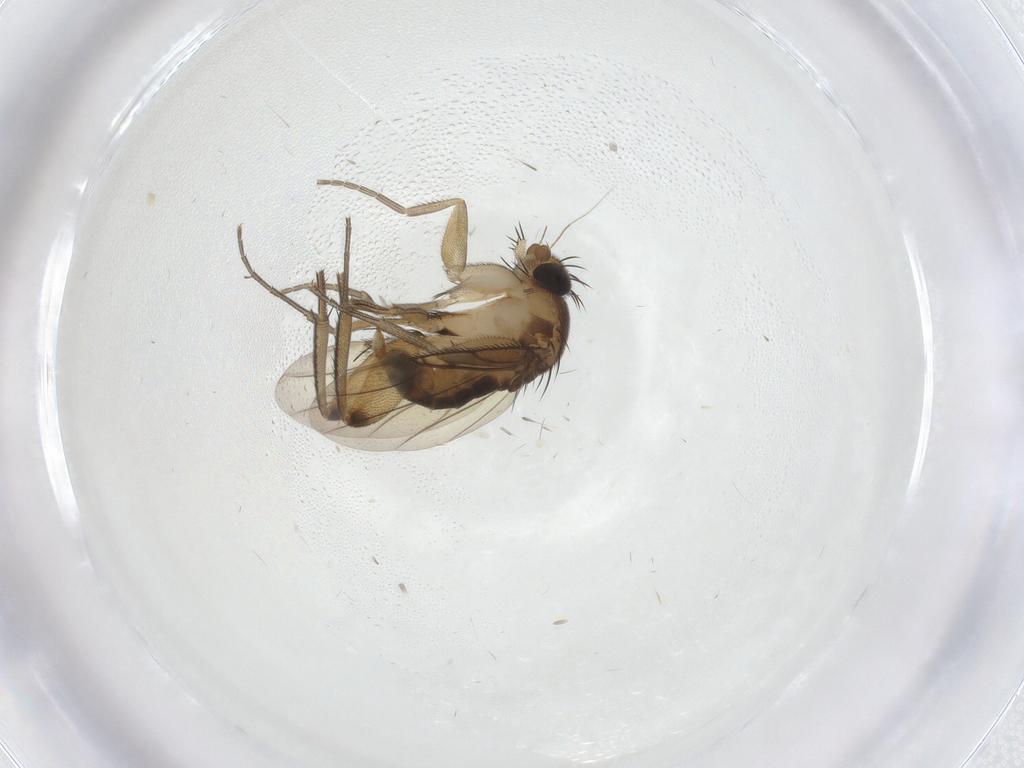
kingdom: Animalia
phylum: Arthropoda
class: Insecta
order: Diptera
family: Phoridae
